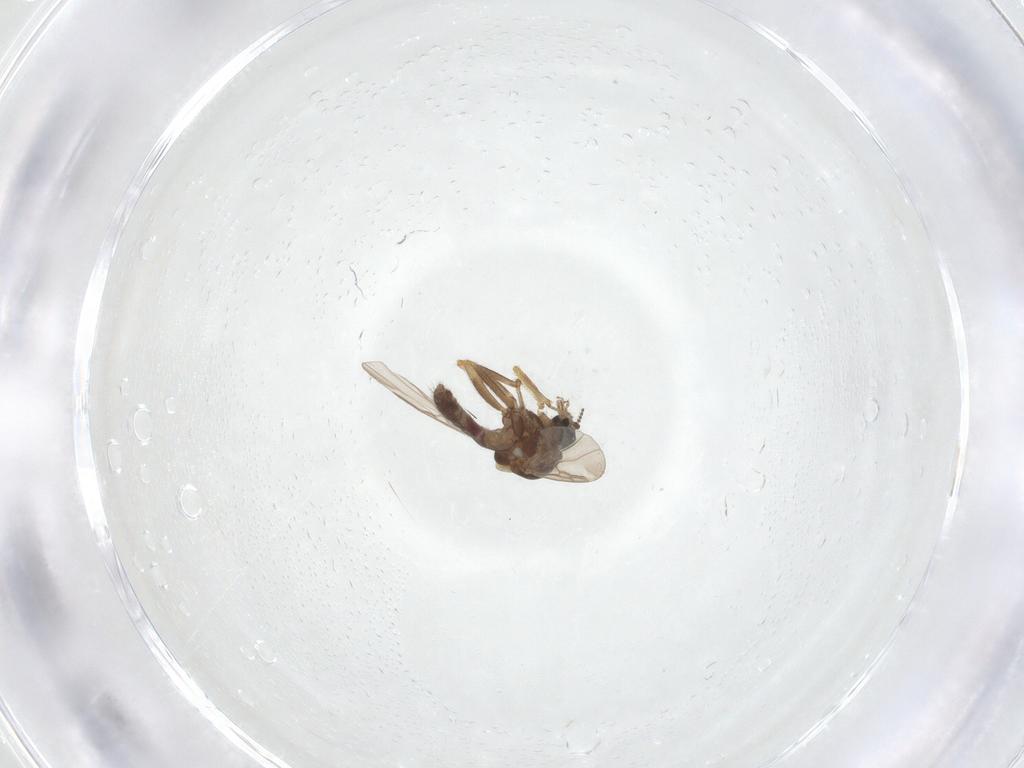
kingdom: Animalia
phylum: Arthropoda
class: Insecta
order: Diptera
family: Ceratopogonidae
